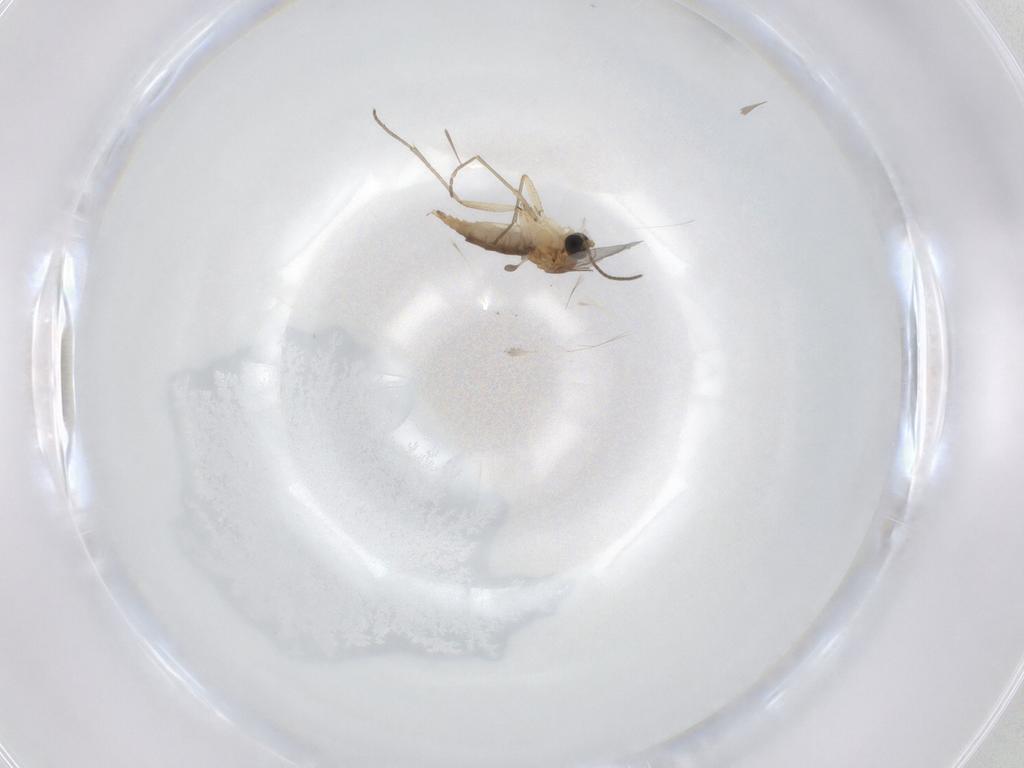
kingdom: Animalia
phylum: Arthropoda
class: Insecta
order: Diptera
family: Sciaridae
